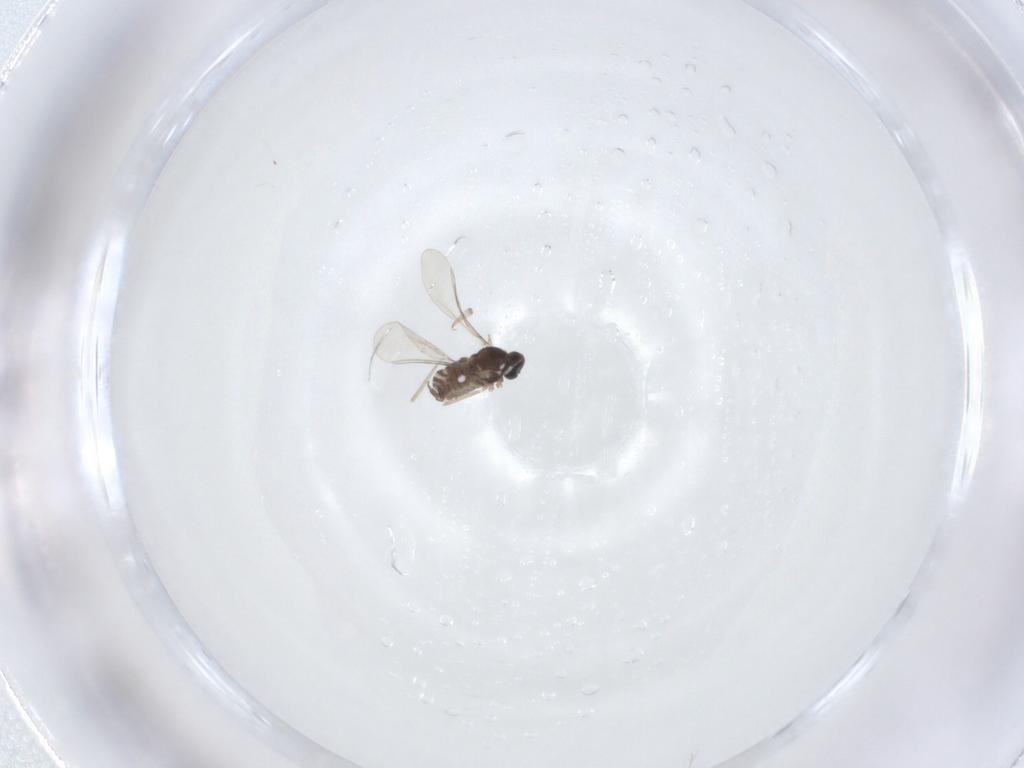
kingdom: Animalia
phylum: Arthropoda
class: Insecta
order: Diptera
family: Cecidomyiidae
